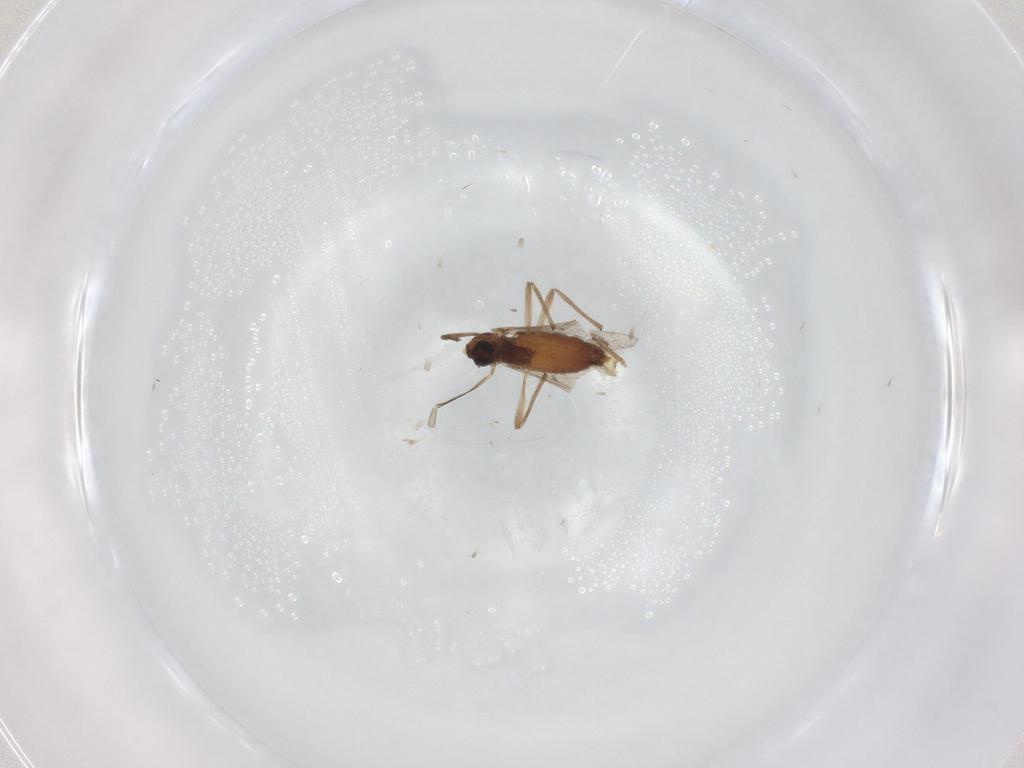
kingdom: Animalia
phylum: Arthropoda
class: Insecta
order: Diptera
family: Chironomidae
